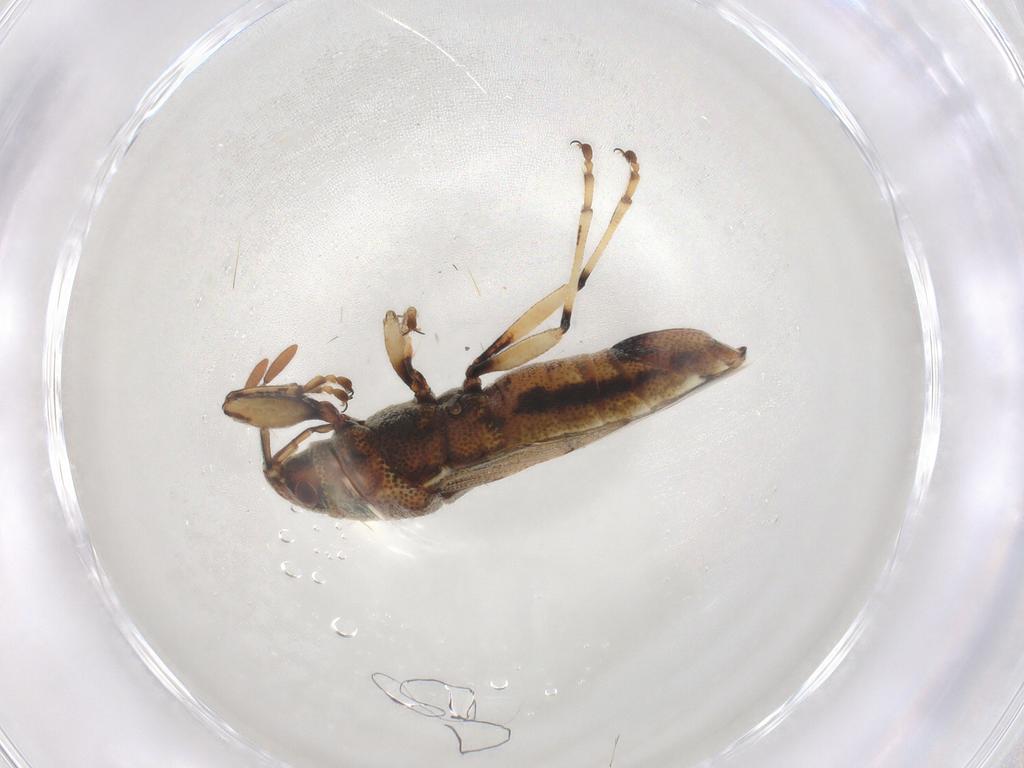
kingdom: Animalia
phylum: Arthropoda
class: Insecta
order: Hemiptera
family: Pachygronthidae
